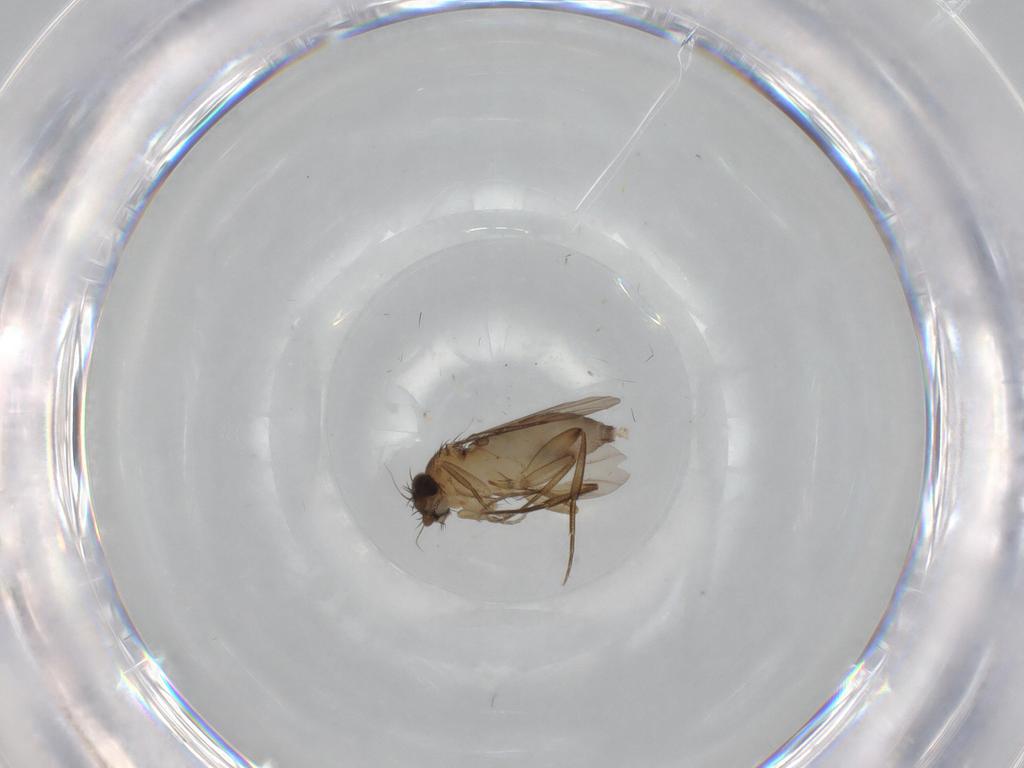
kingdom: Animalia
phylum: Arthropoda
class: Insecta
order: Diptera
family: Phoridae
